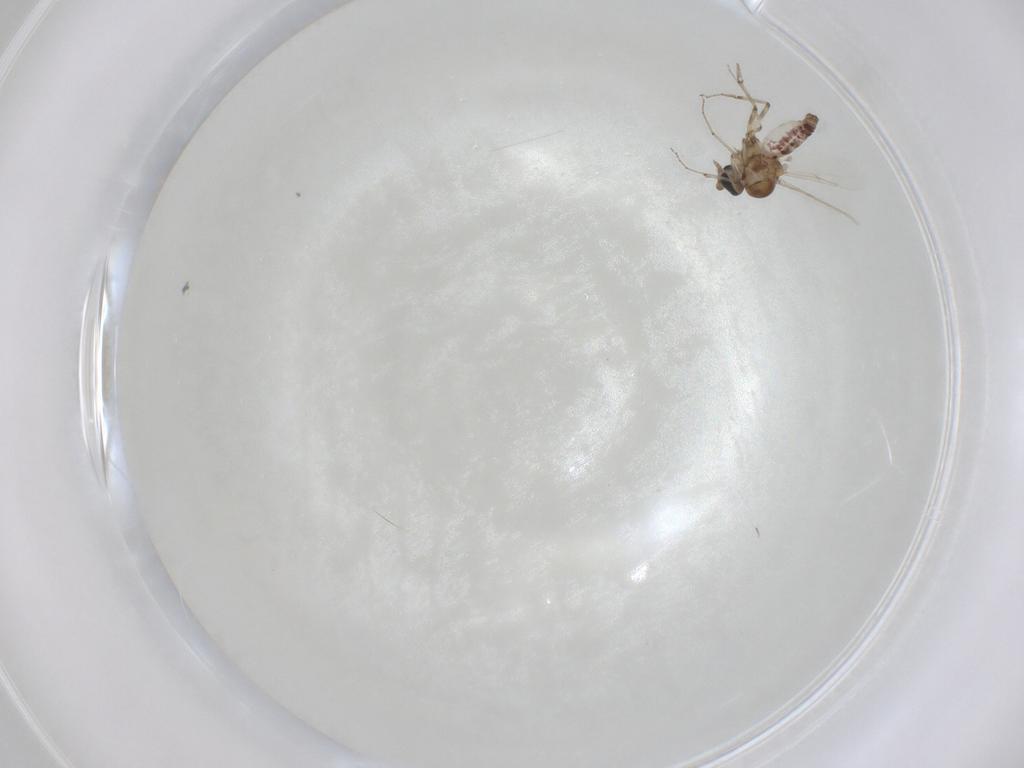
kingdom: Animalia
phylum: Arthropoda
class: Insecta
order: Diptera
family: Ceratopogonidae
